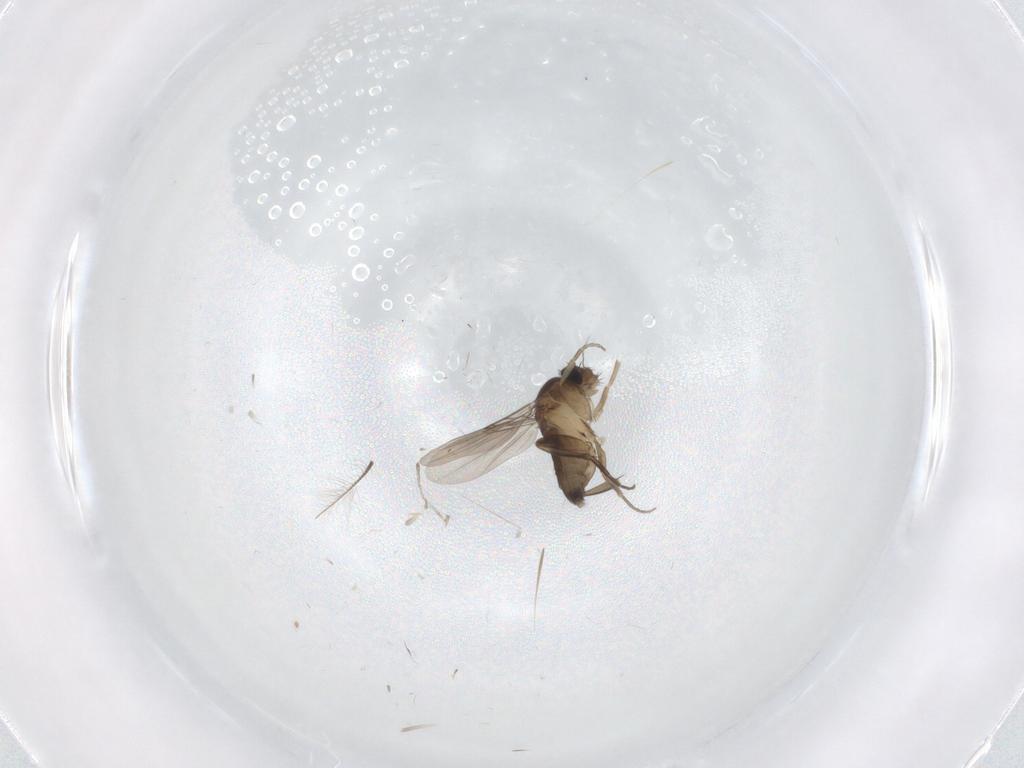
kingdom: Animalia
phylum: Arthropoda
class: Insecta
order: Diptera
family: Phoridae
